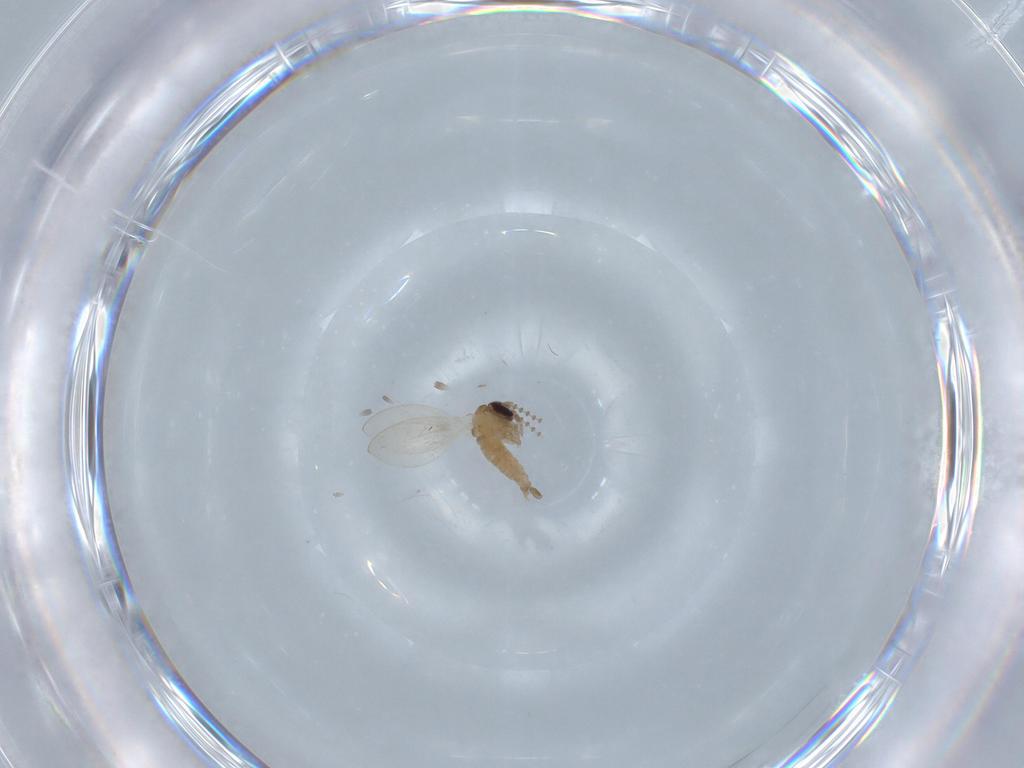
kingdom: Animalia
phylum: Arthropoda
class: Insecta
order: Diptera
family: Psychodidae
